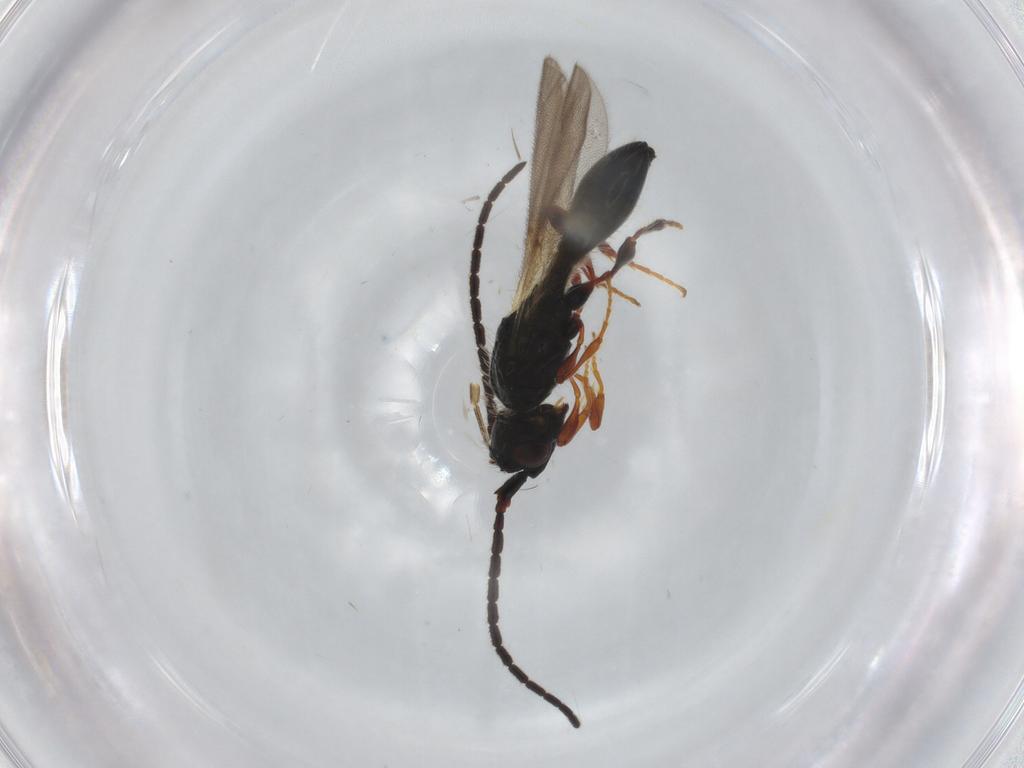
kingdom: Animalia
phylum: Arthropoda
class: Insecta
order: Hymenoptera
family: Diapriidae
